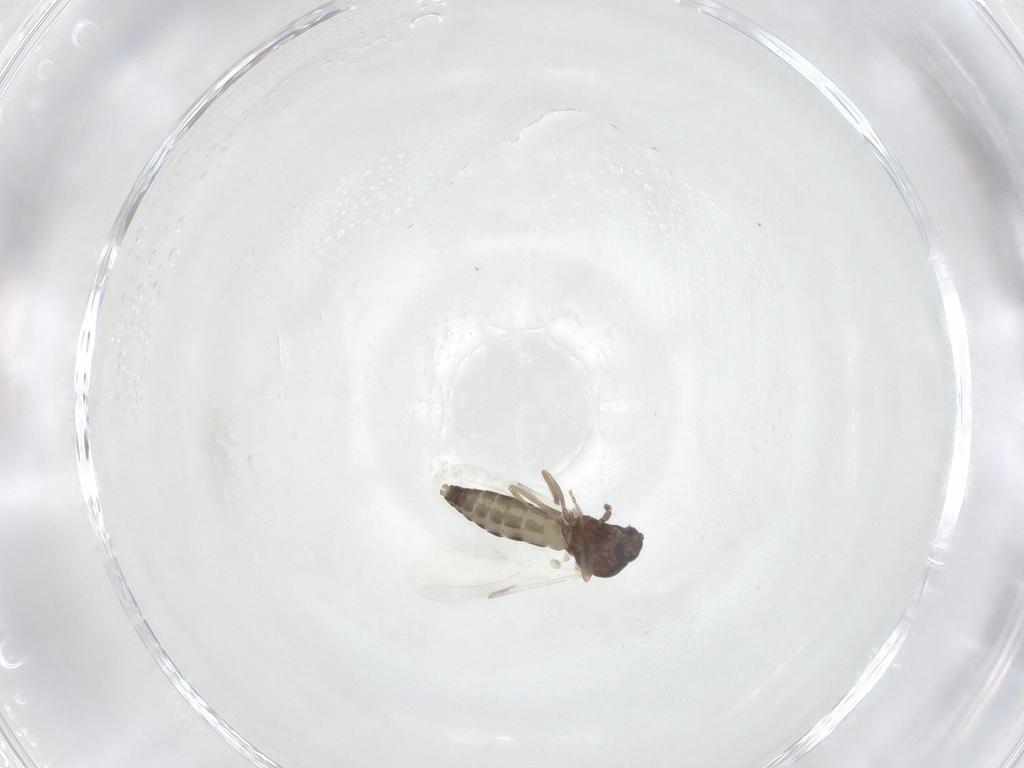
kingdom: Animalia
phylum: Arthropoda
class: Insecta
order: Diptera
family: Ceratopogonidae
